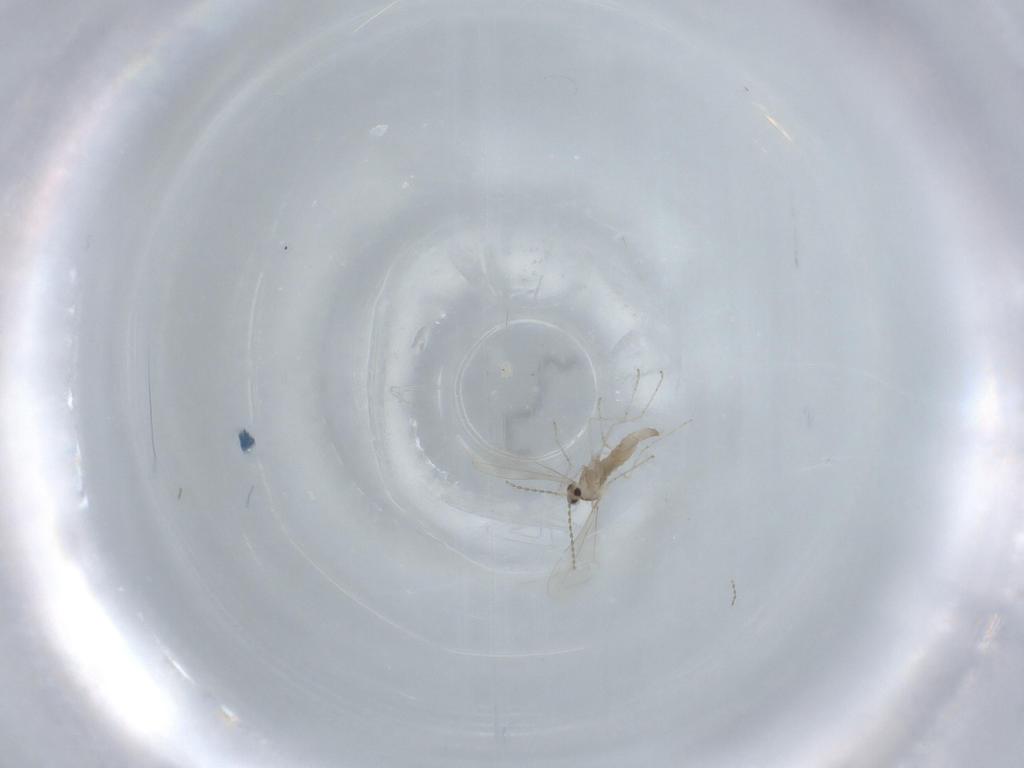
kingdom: Animalia
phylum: Arthropoda
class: Insecta
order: Diptera
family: Cecidomyiidae
